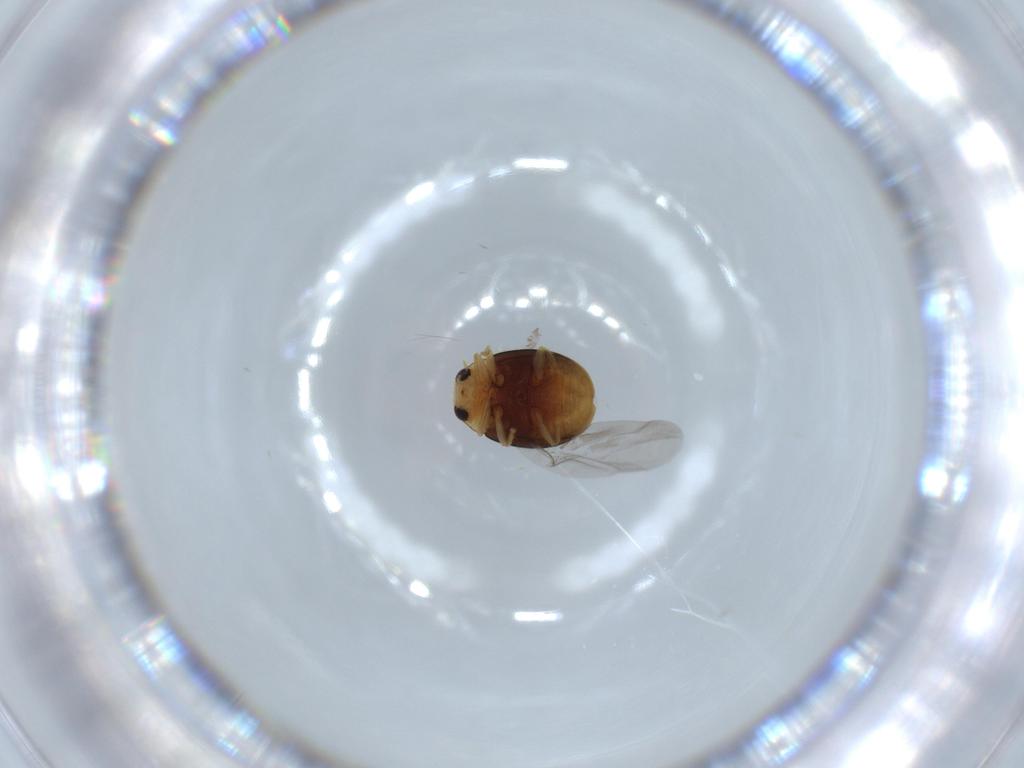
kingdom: Animalia
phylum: Arthropoda
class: Insecta
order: Coleoptera
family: Coccinellidae
